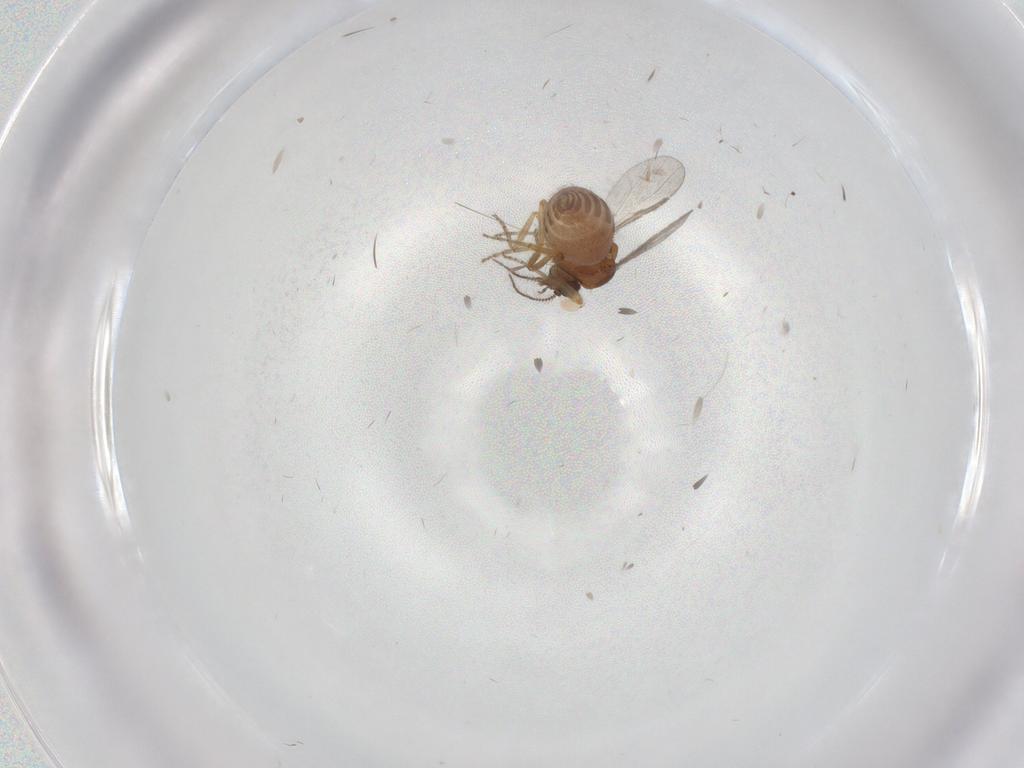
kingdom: Animalia
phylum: Arthropoda
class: Insecta
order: Diptera
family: Ceratopogonidae
